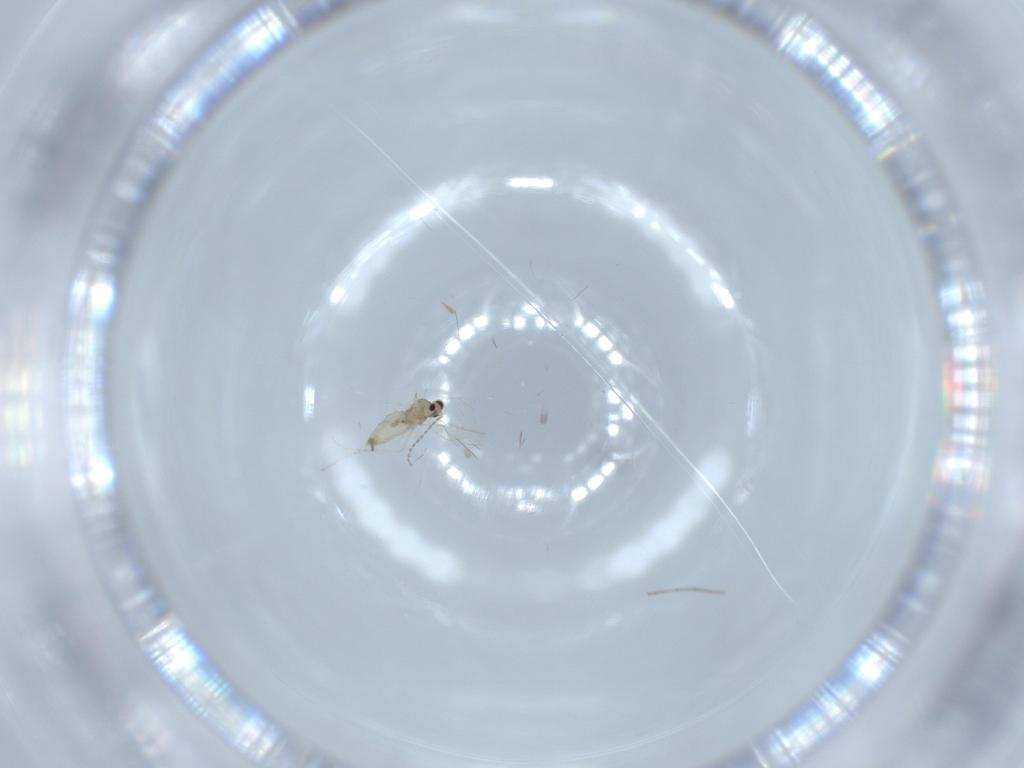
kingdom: Animalia
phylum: Arthropoda
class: Insecta
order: Diptera
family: Cecidomyiidae
